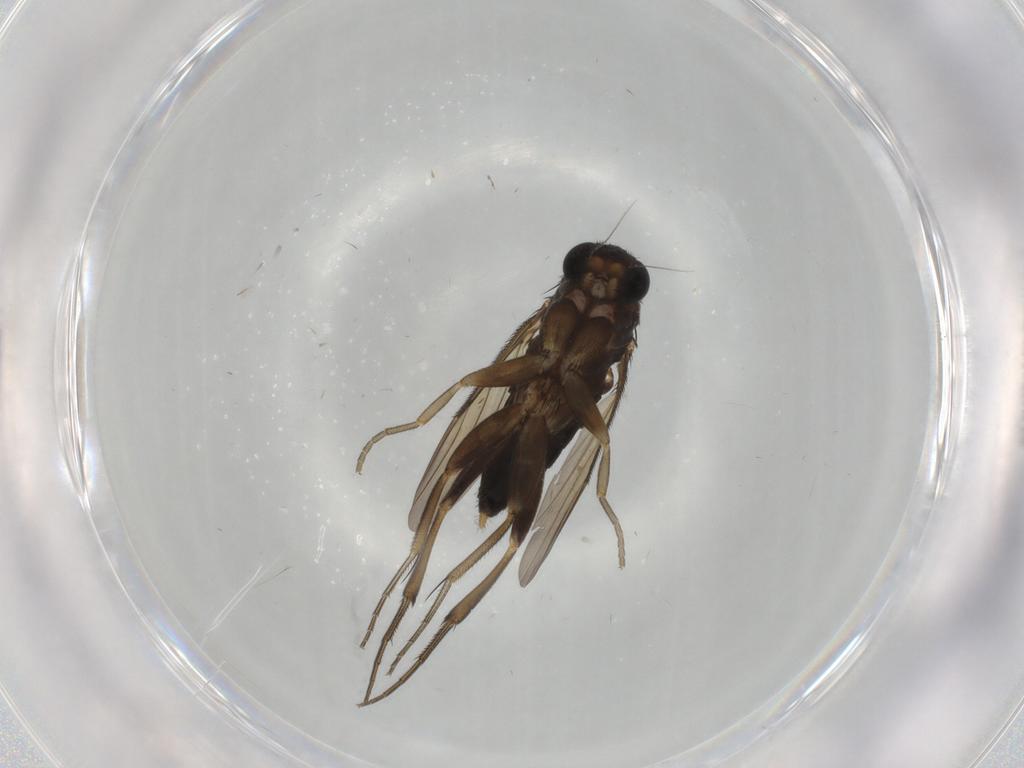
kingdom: Animalia
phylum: Arthropoda
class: Insecta
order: Diptera
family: Phoridae
